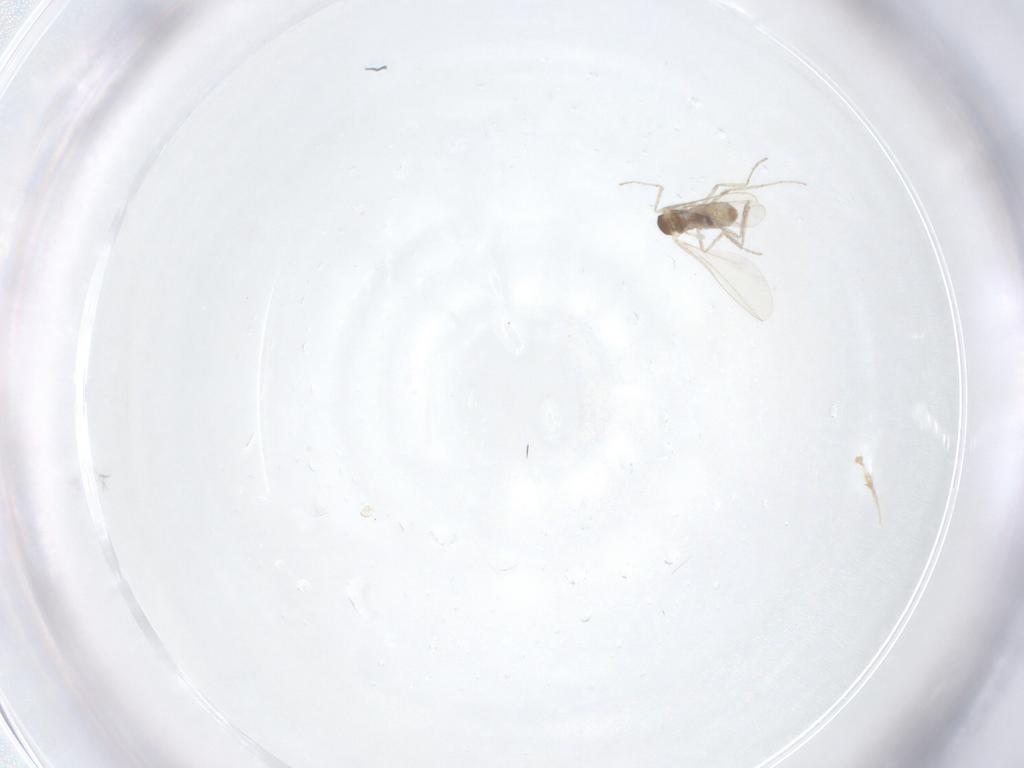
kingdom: Animalia
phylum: Arthropoda
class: Insecta
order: Diptera
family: Cecidomyiidae
